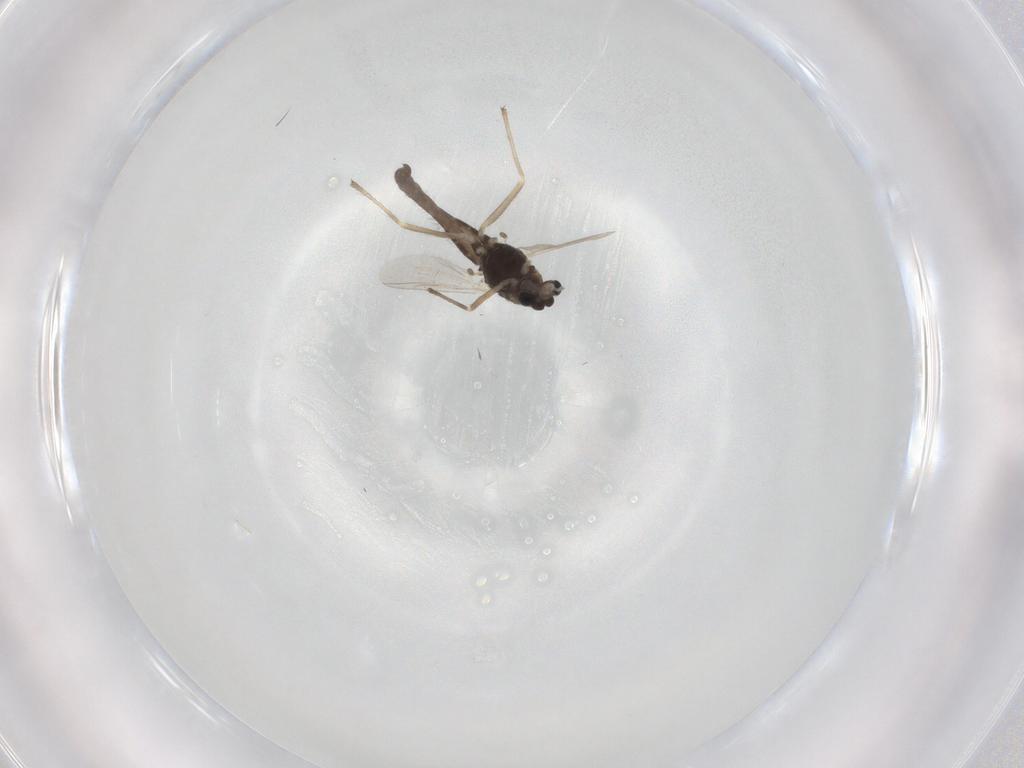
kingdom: Animalia
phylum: Arthropoda
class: Insecta
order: Diptera
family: Chironomidae
